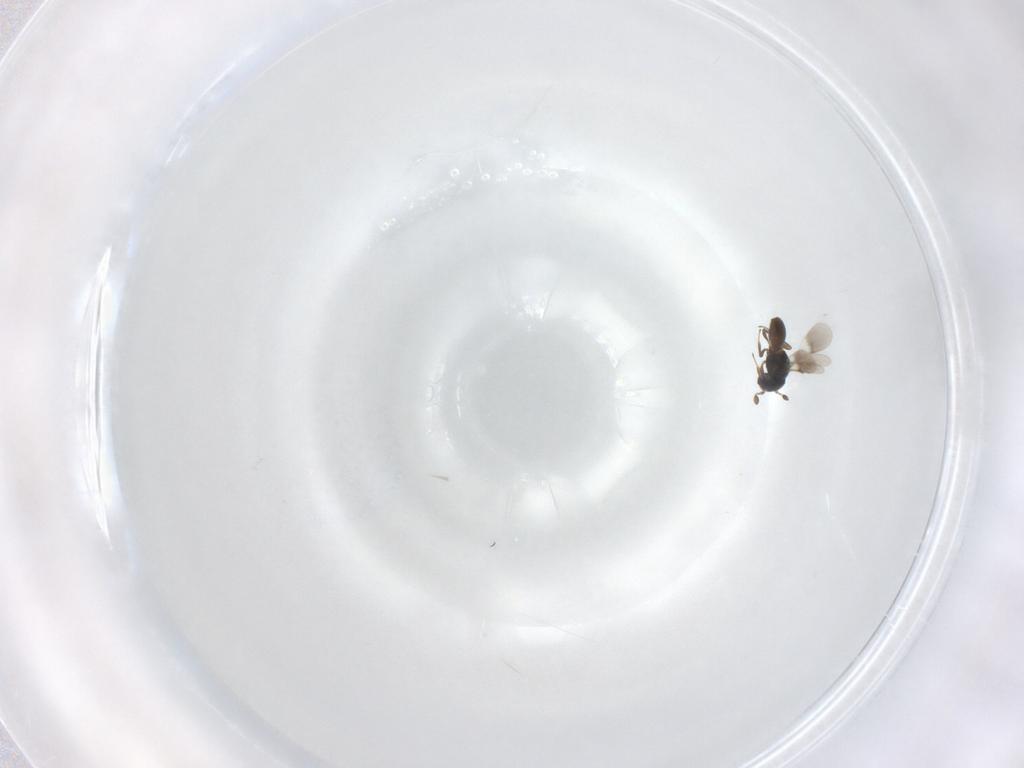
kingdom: Animalia
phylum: Arthropoda
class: Insecta
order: Hymenoptera
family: Scelionidae
